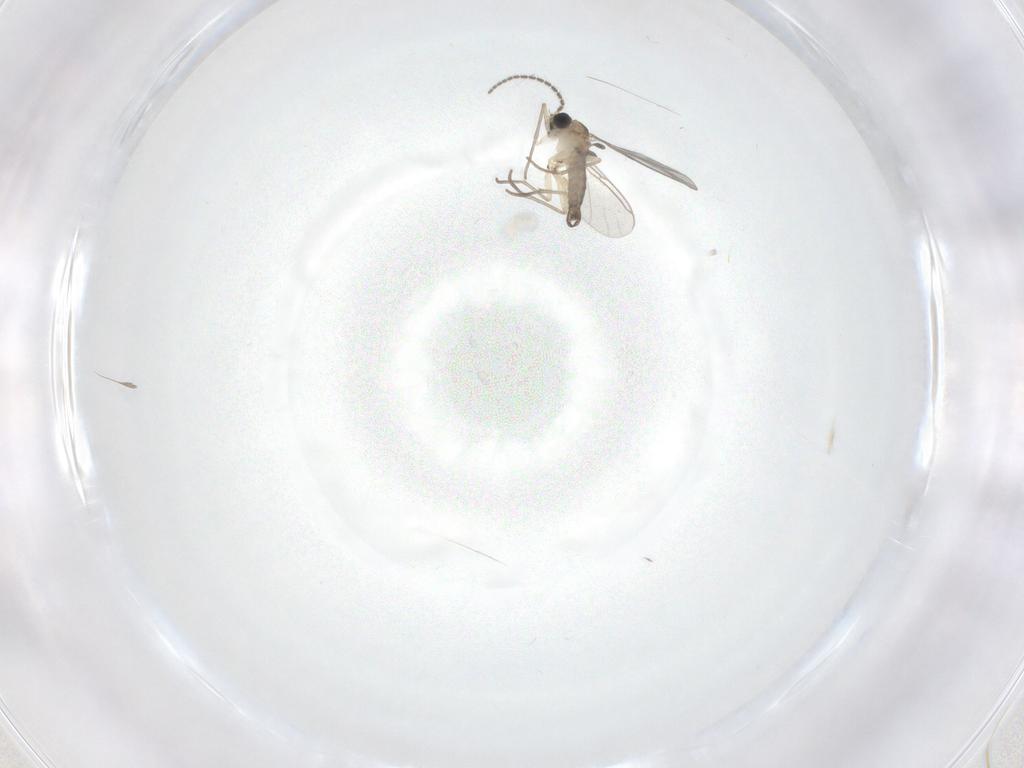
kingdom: Animalia
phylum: Arthropoda
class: Insecta
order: Diptera
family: Sciaridae
